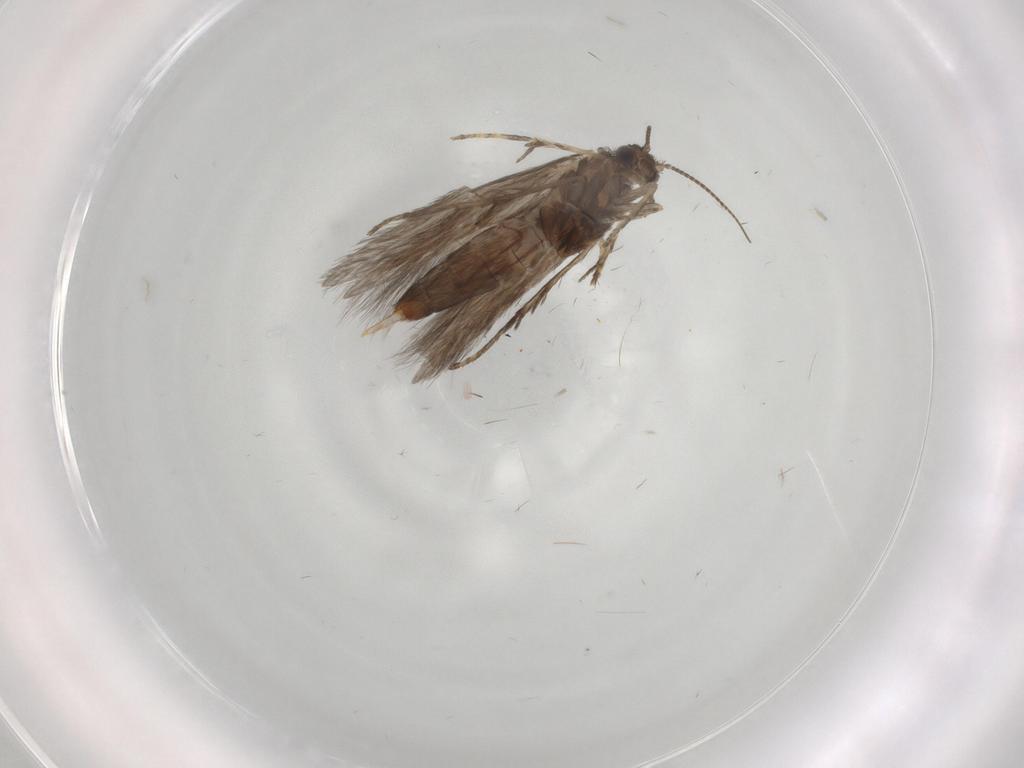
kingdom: Animalia
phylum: Arthropoda
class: Insecta
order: Trichoptera
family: Hydroptilidae
